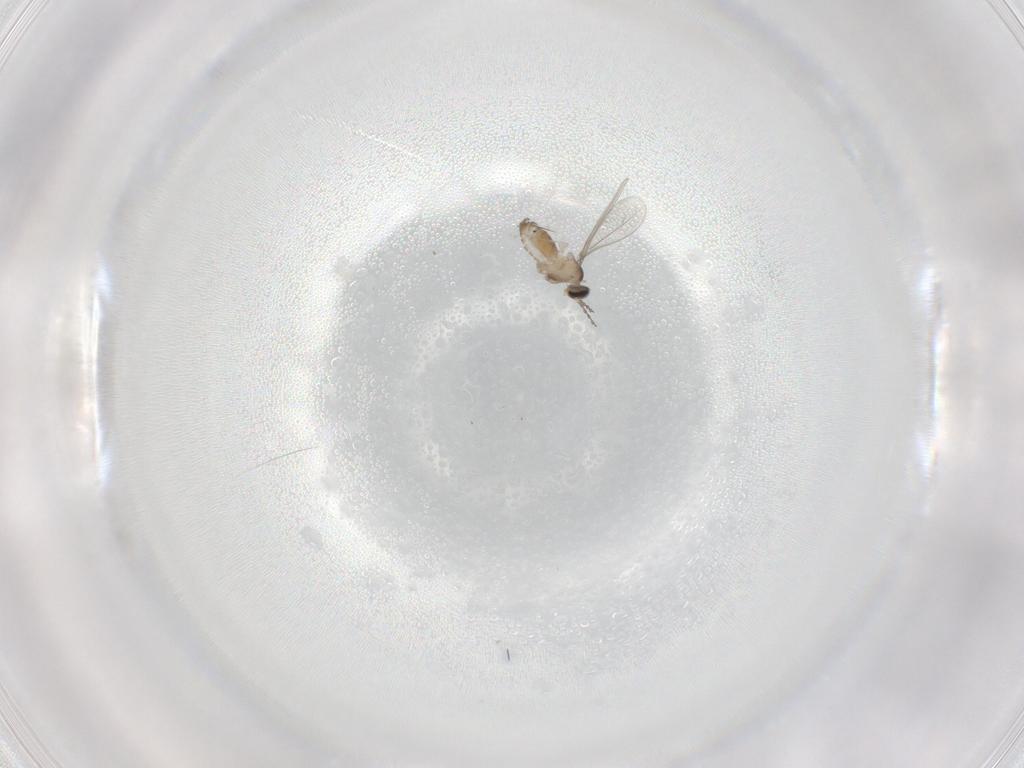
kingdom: Animalia
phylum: Arthropoda
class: Insecta
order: Diptera
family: Cecidomyiidae
